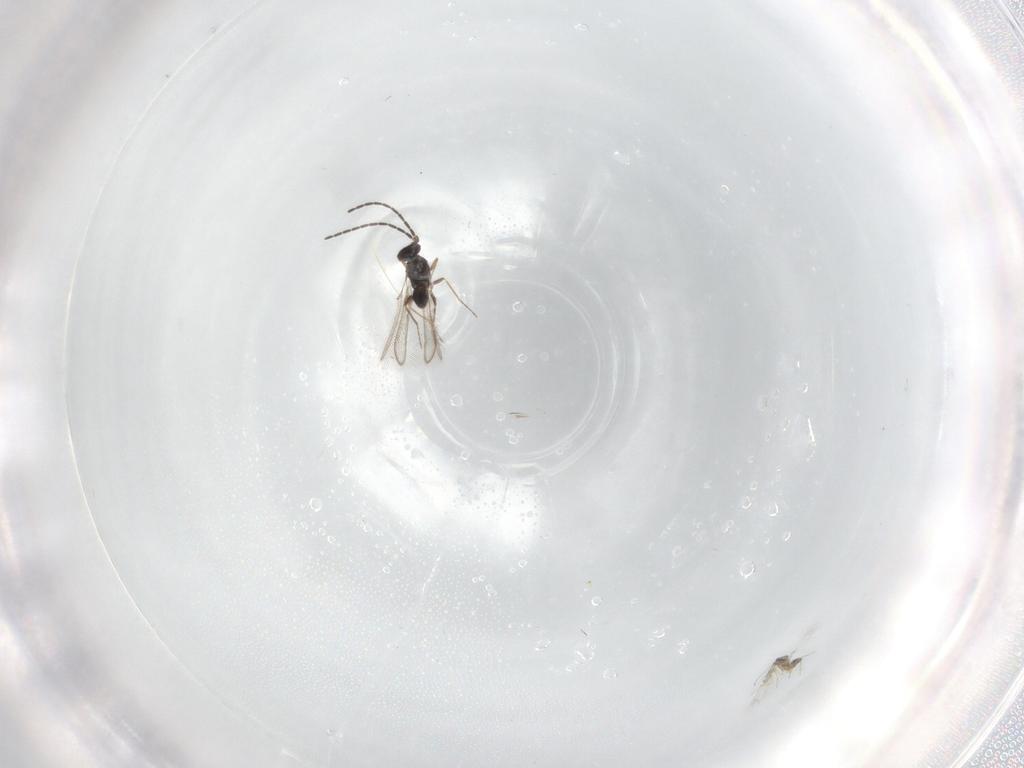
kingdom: Animalia
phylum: Arthropoda
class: Insecta
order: Hymenoptera
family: Mymaridae
